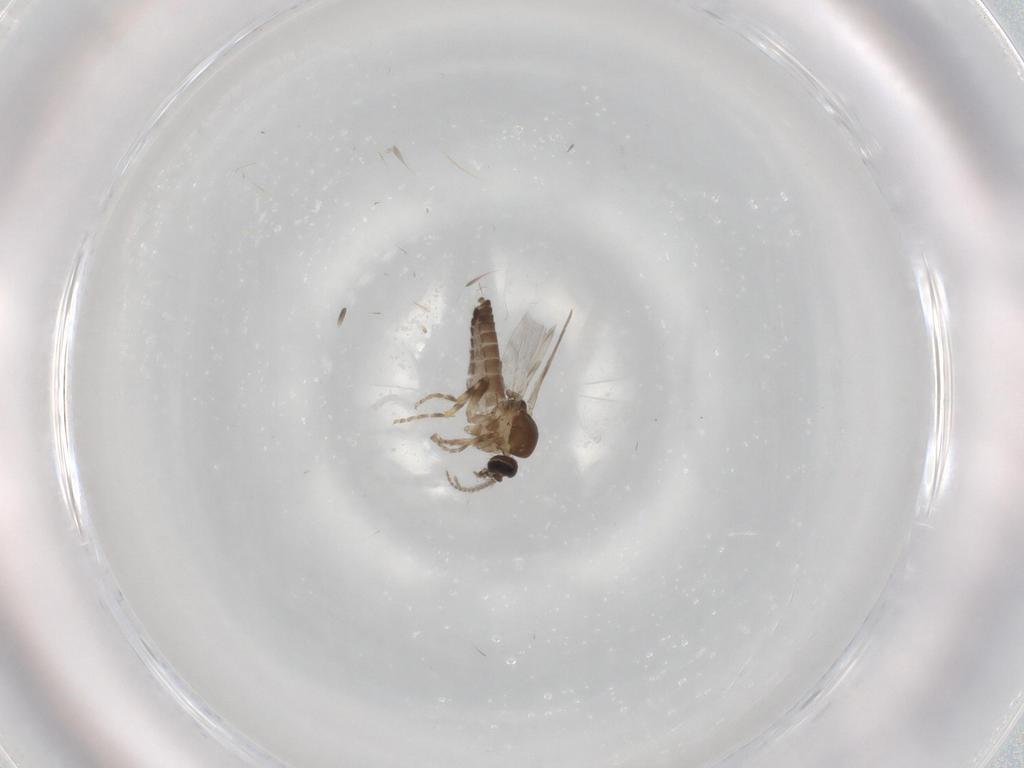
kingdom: Animalia
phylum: Arthropoda
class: Insecta
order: Diptera
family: Ceratopogonidae
